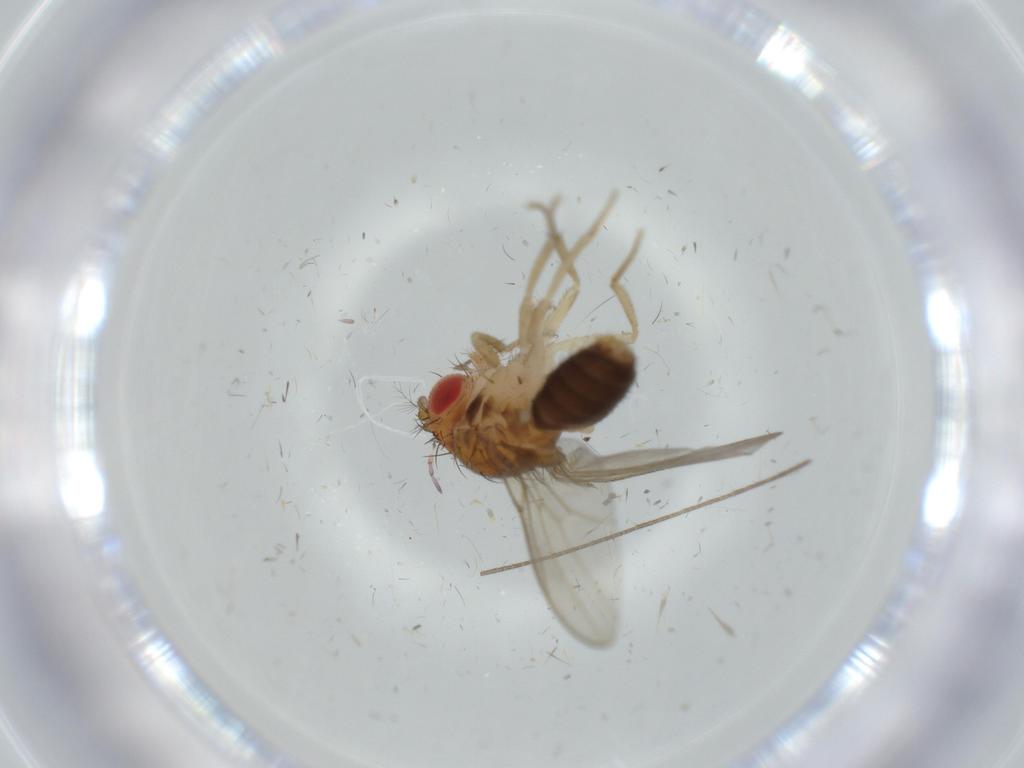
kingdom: Animalia
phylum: Arthropoda
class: Insecta
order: Diptera
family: Drosophilidae
